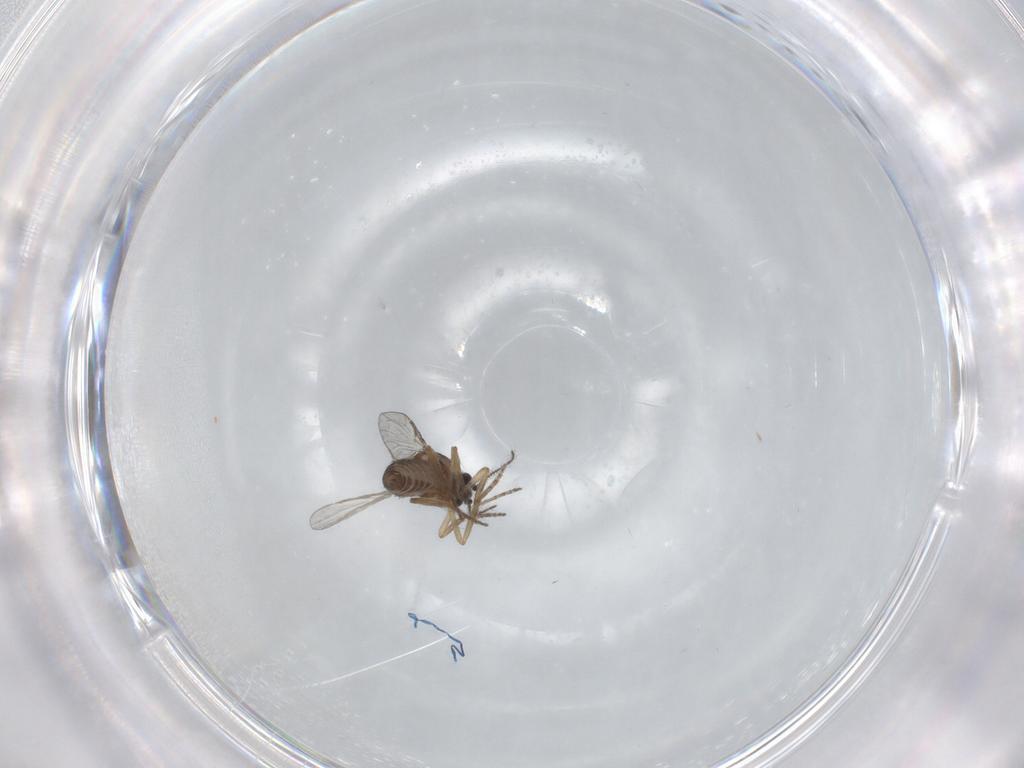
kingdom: Animalia
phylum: Arthropoda
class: Insecta
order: Diptera
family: Ceratopogonidae
